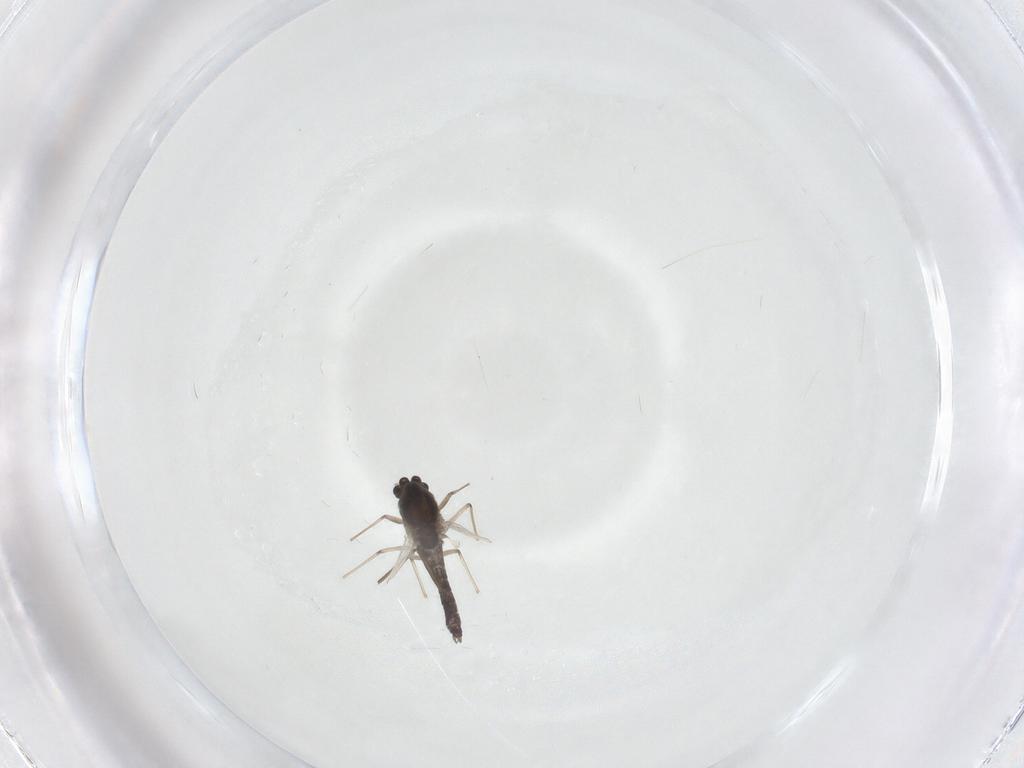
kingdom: Animalia
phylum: Arthropoda
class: Insecta
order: Diptera
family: Chironomidae
